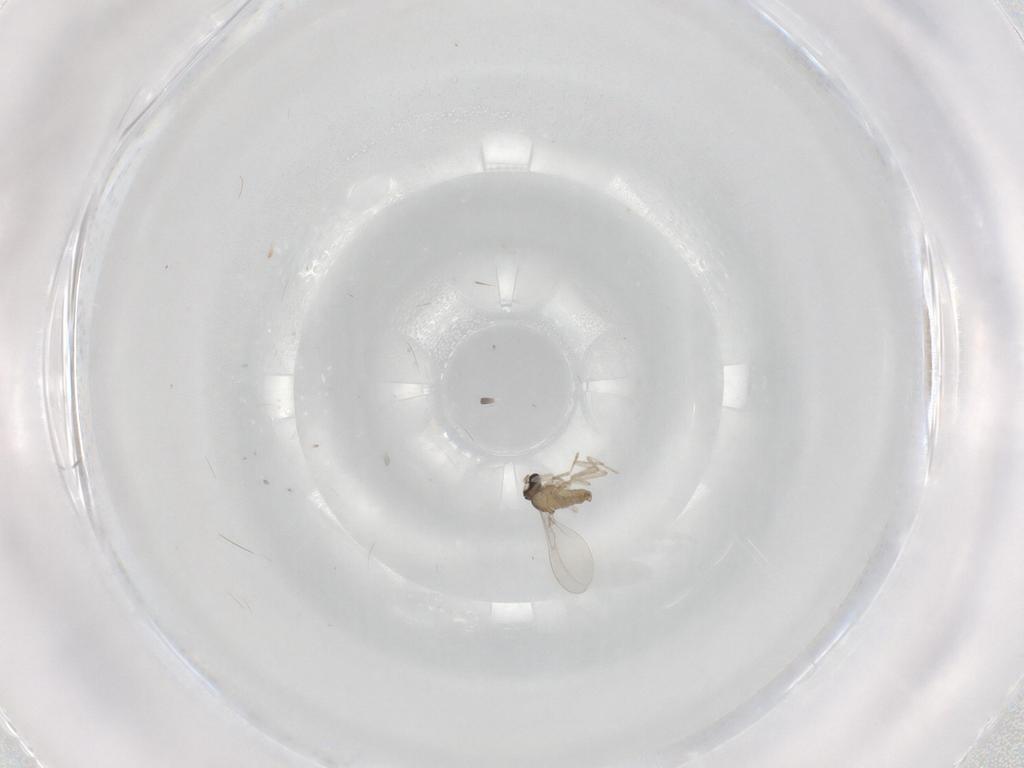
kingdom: Animalia
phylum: Arthropoda
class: Insecta
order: Diptera
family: Cecidomyiidae
